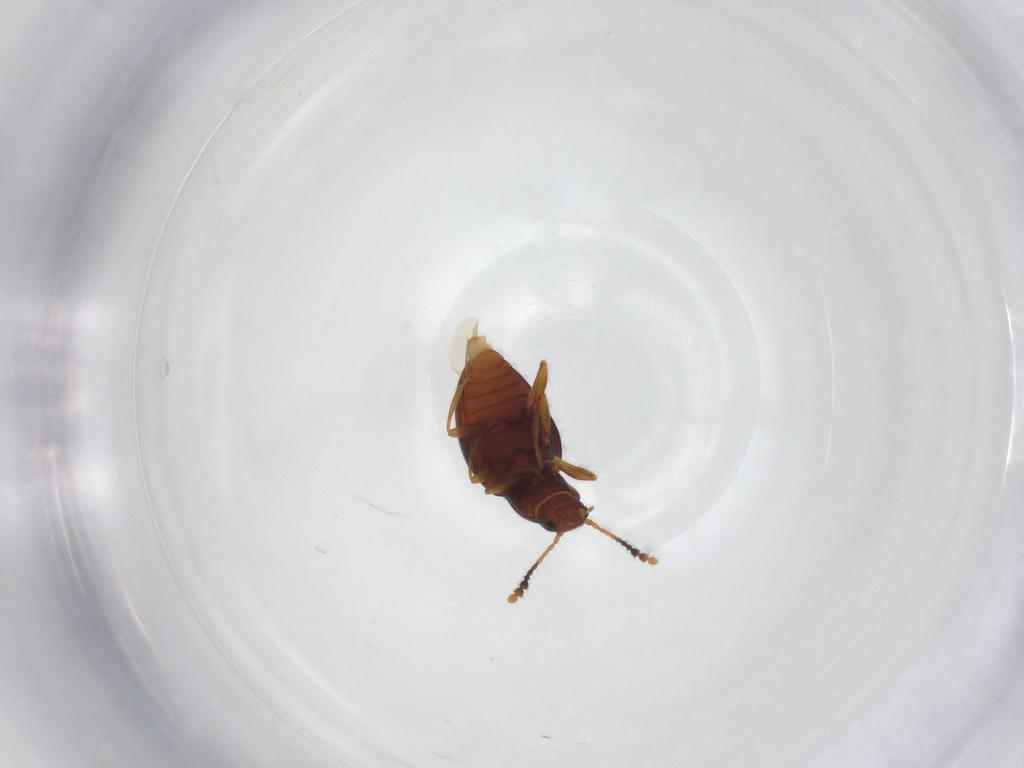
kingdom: Animalia
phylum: Arthropoda
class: Insecta
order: Coleoptera
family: Erotylidae
